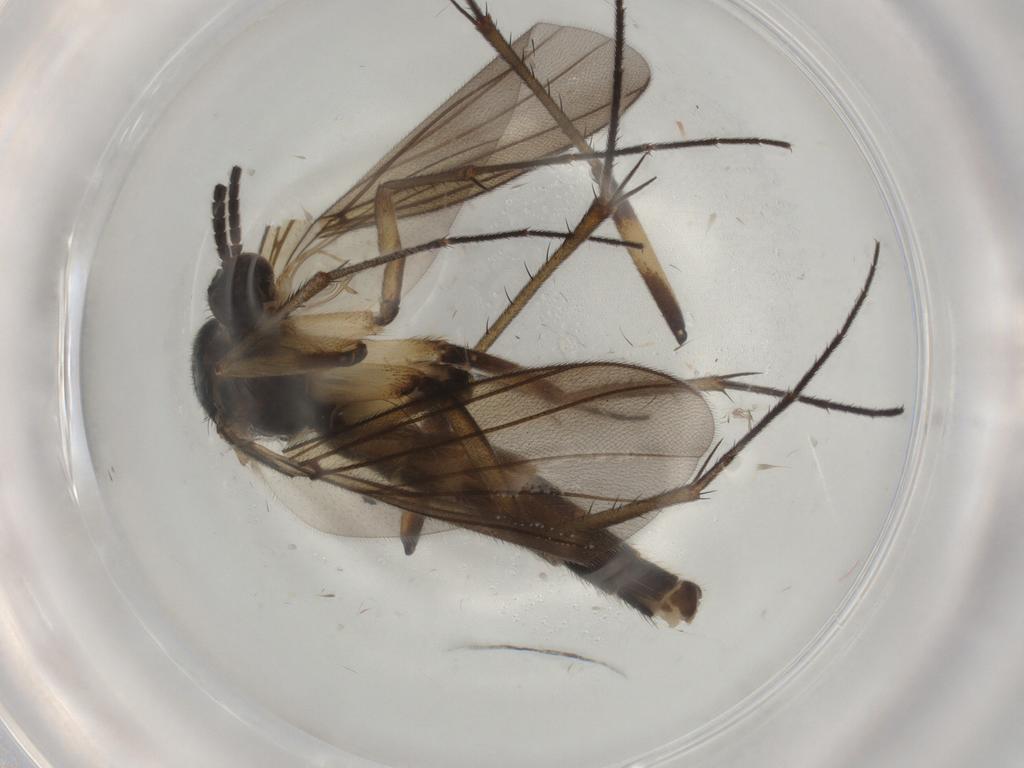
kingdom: Animalia
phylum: Arthropoda
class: Insecta
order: Diptera
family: Mycetophilidae
